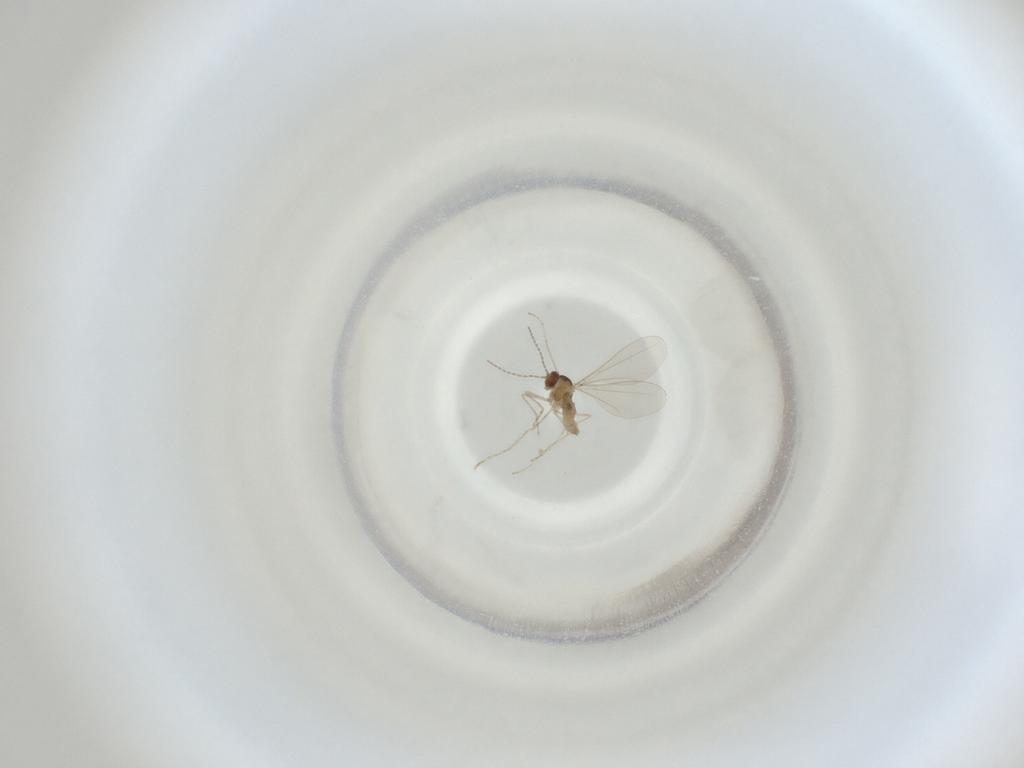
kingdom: Animalia
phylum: Arthropoda
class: Insecta
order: Diptera
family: Cecidomyiidae
